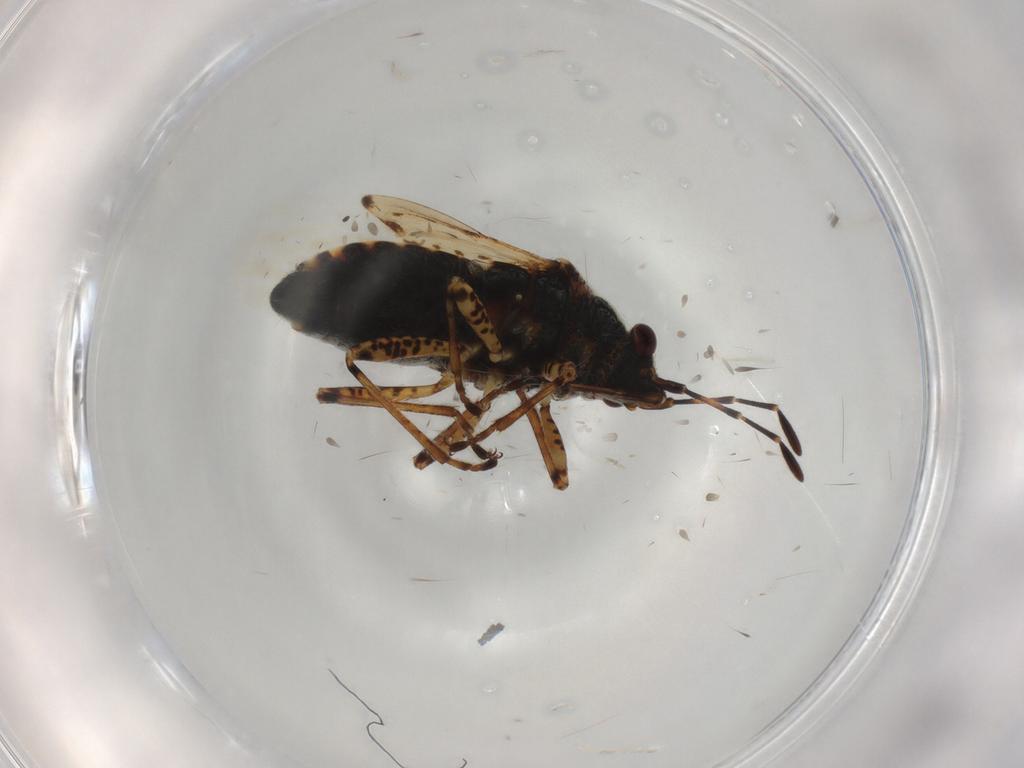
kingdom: Animalia
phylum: Arthropoda
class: Insecta
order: Hemiptera
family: Lygaeidae
